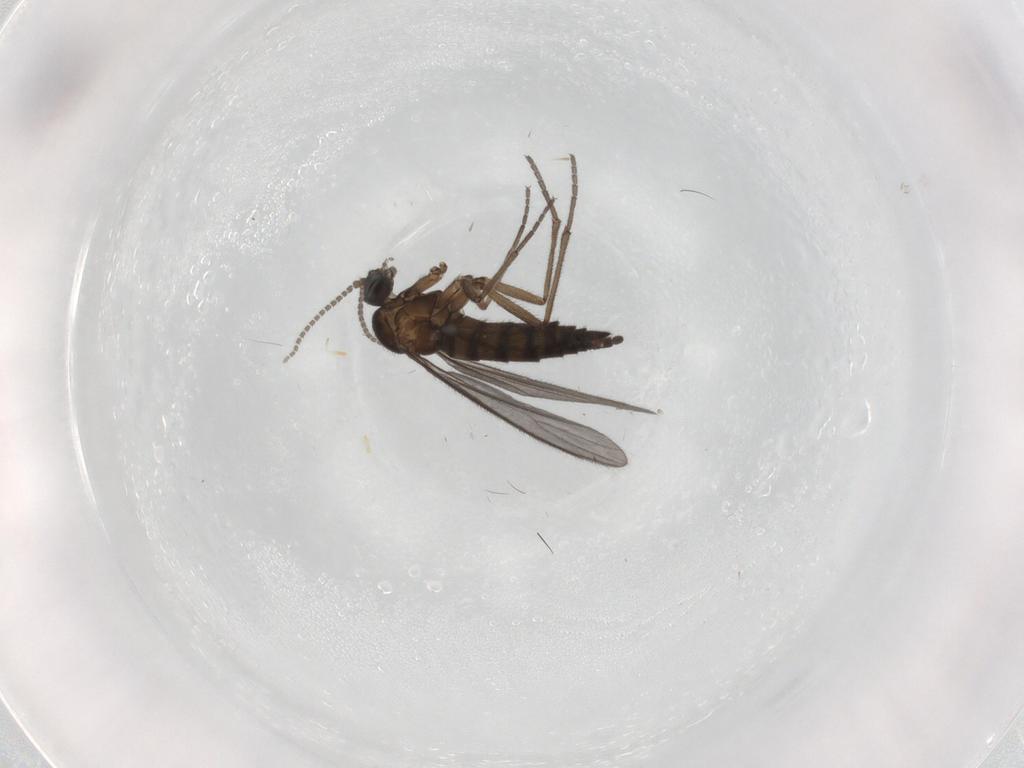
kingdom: Animalia
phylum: Arthropoda
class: Insecta
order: Diptera
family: Sciaridae
